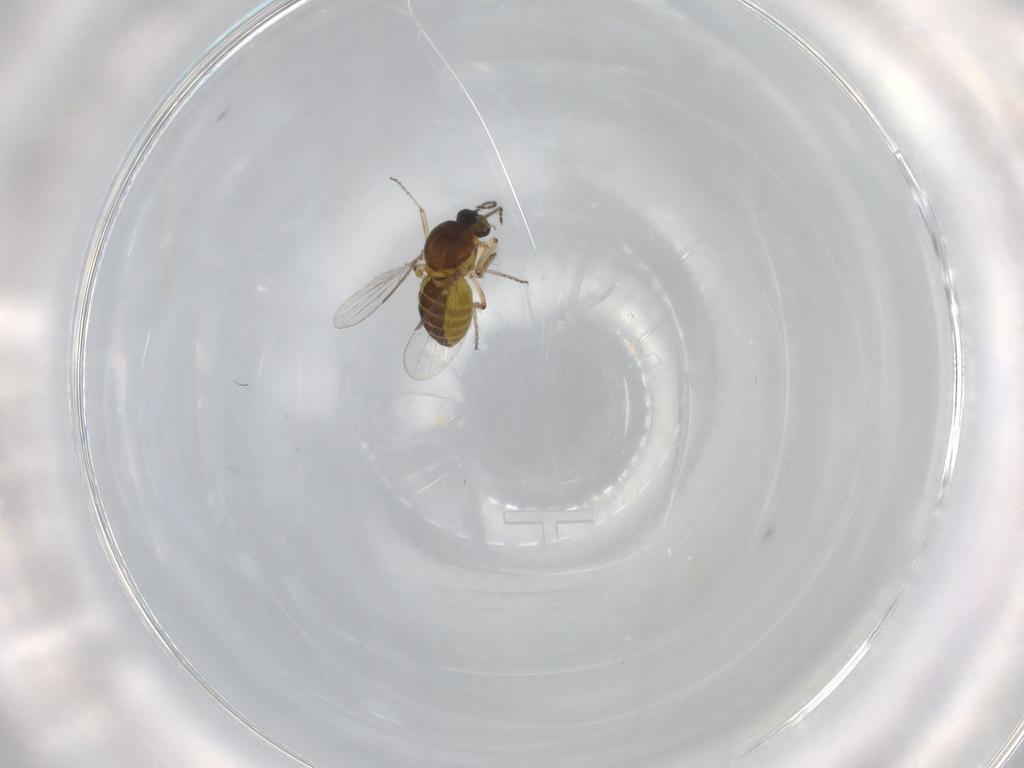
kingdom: Animalia
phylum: Arthropoda
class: Insecta
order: Diptera
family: Ceratopogonidae
